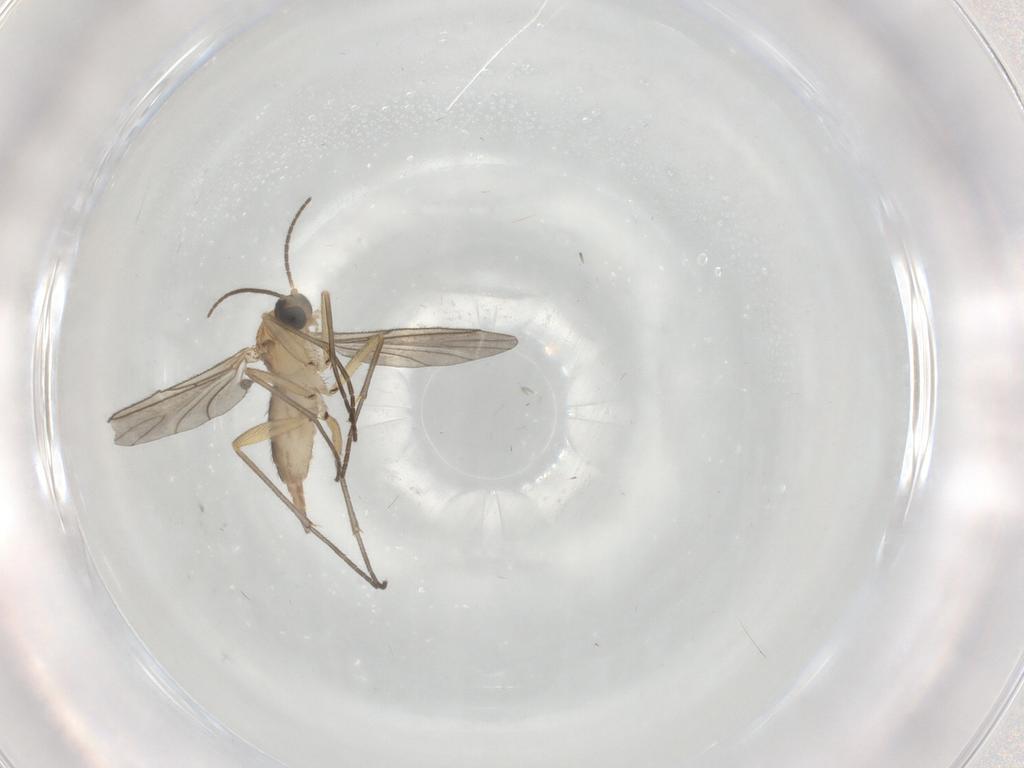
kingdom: Animalia
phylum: Arthropoda
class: Insecta
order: Diptera
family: Sciaridae
